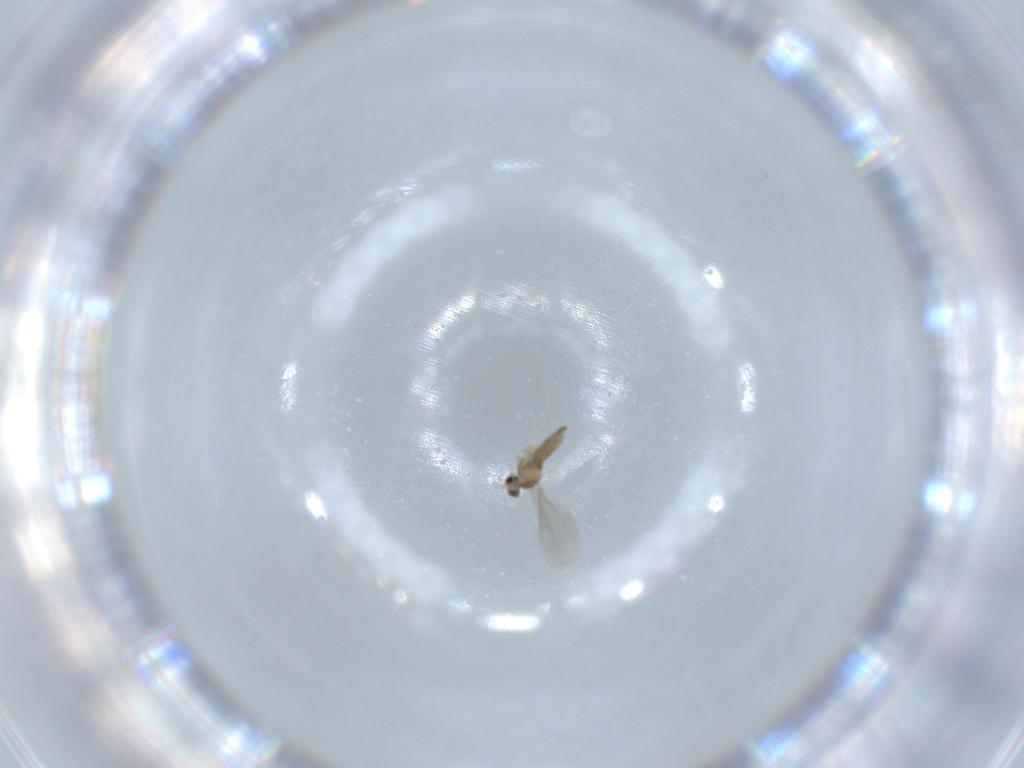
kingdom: Animalia
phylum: Arthropoda
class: Insecta
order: Diptera
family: Cecidomyiidae
